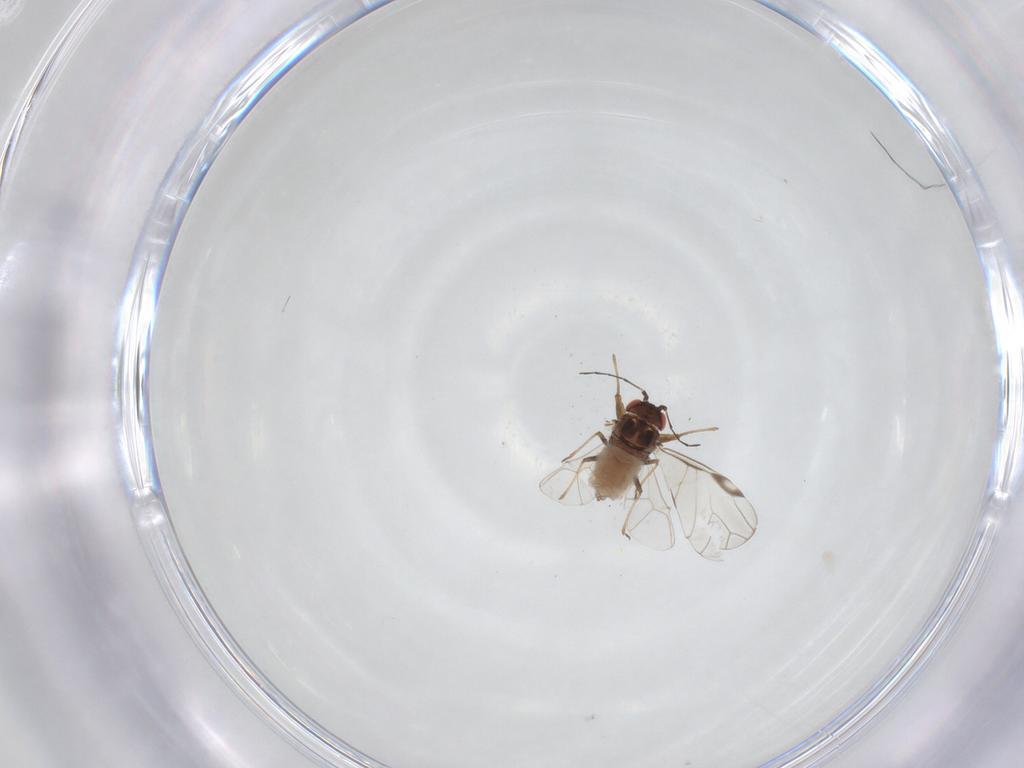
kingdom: Animalia
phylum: Arthropoda
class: Insecta
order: Hemiptera
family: Aphididae
